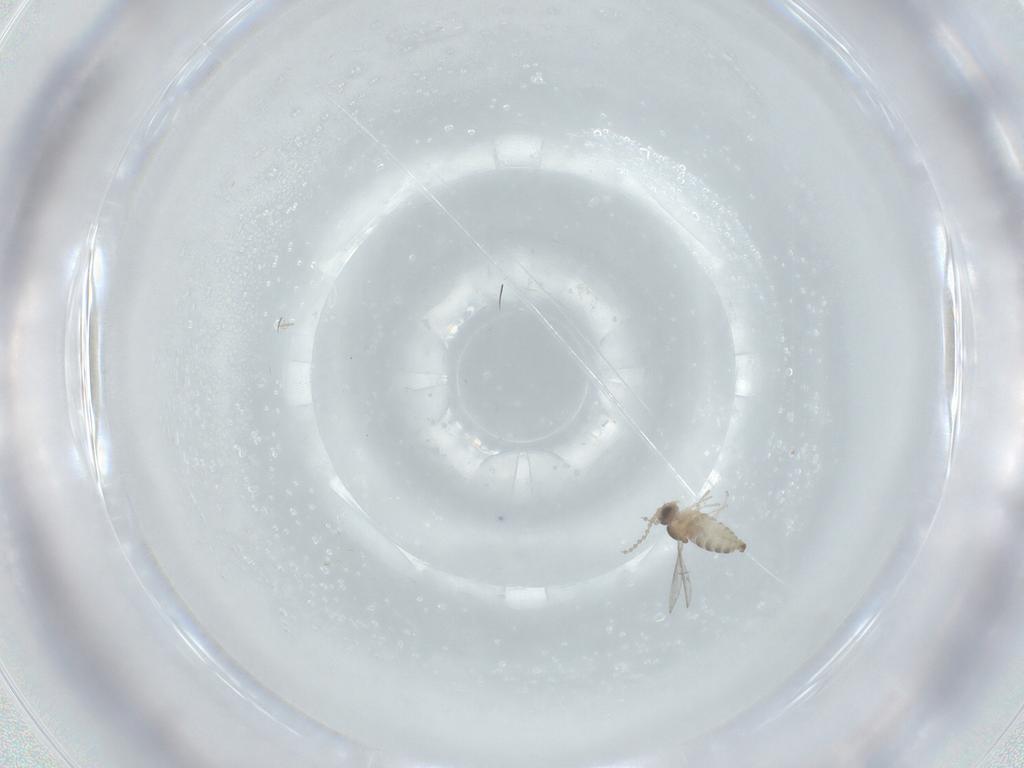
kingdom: Animalia
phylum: Arthropoda
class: Insecta
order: Diptera
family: Cecidomyiidae
